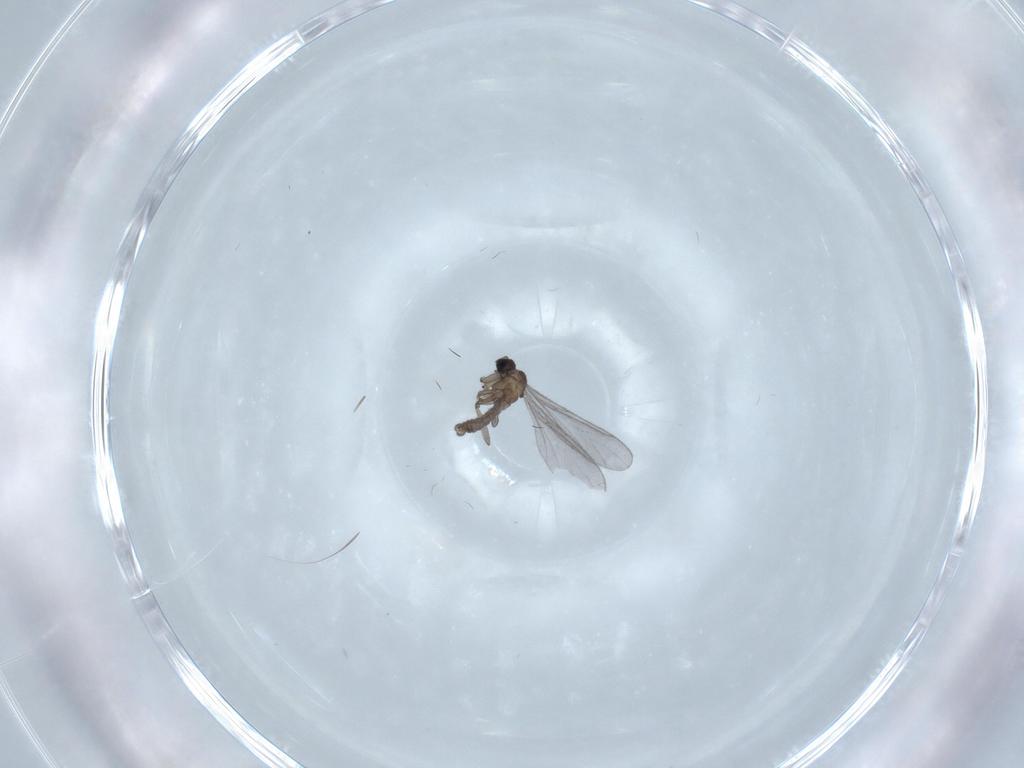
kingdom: Animalia
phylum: Arthropoda
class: Insecta
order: Diptera
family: Sciaridae
